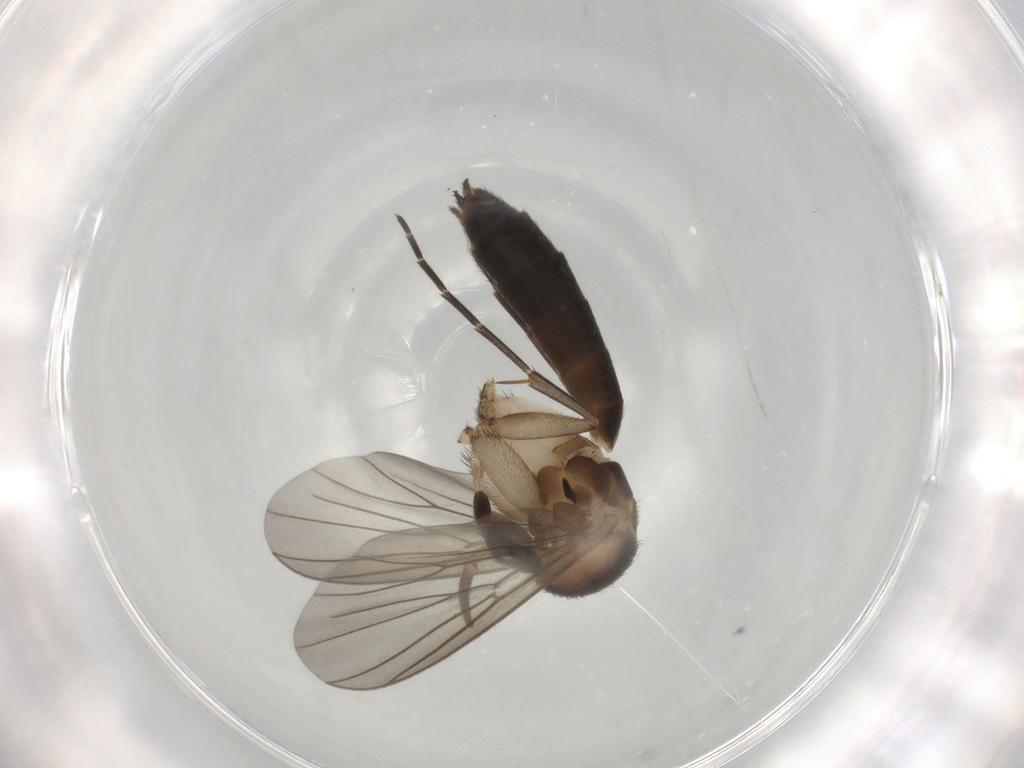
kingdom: Animalia
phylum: Arthropoda
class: Insecta
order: Diptera
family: Mycetophilidae
